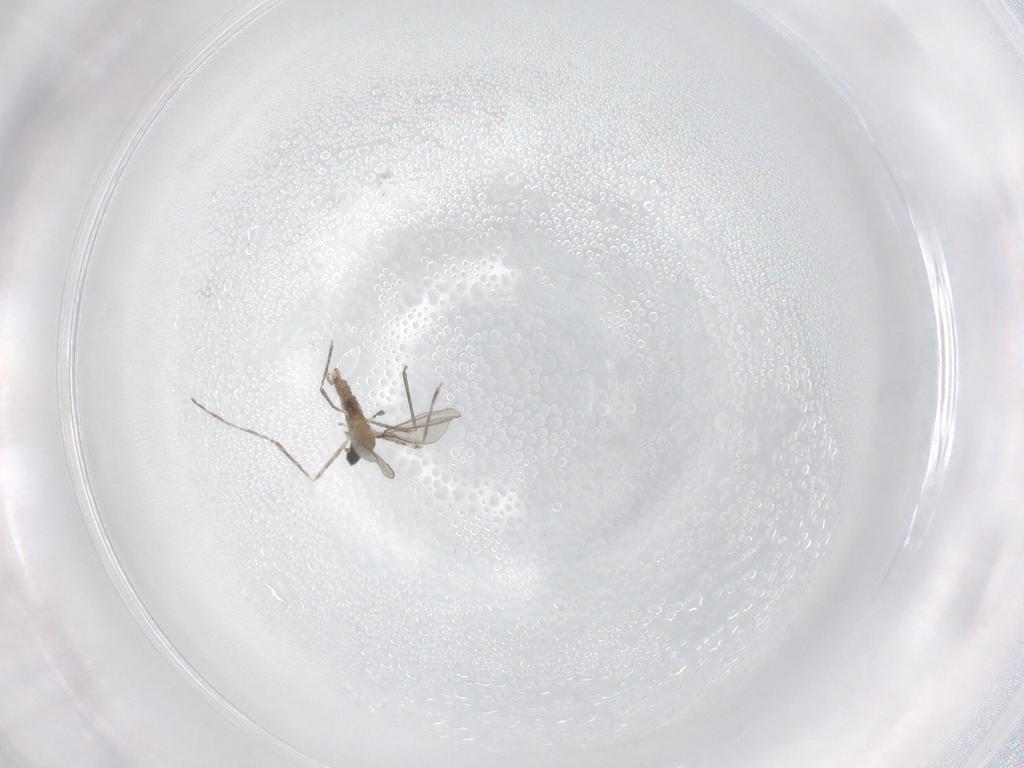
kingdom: Animalia
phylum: Arthropoda
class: Insecta
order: Diptera
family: Cecidomyiidae
